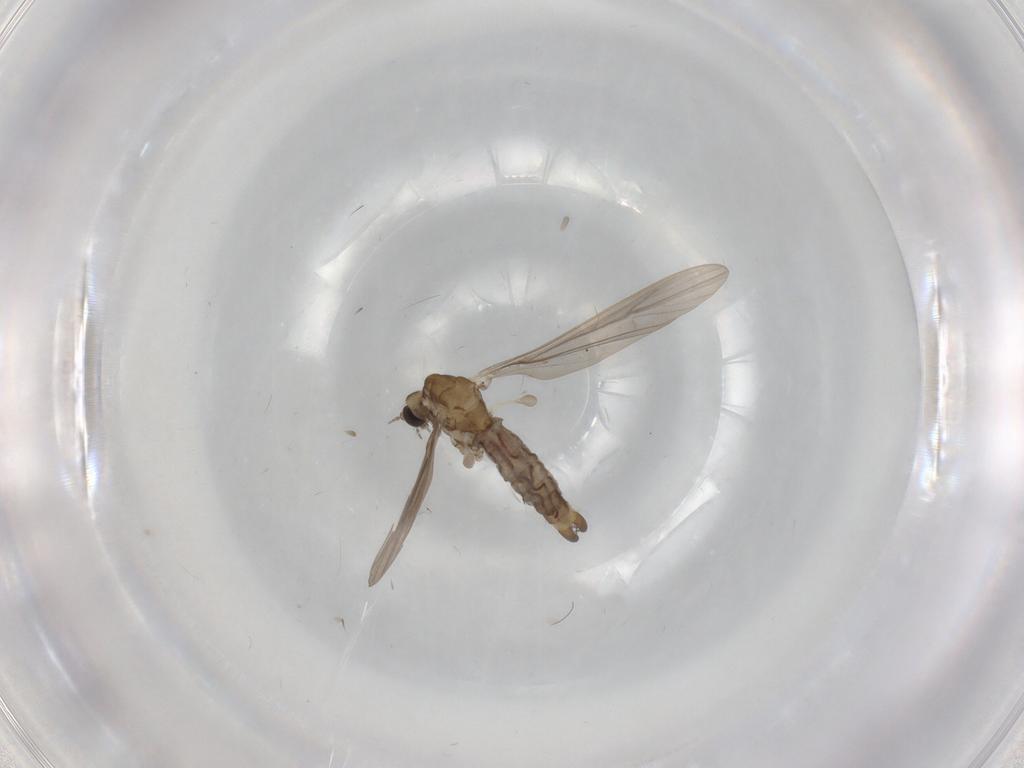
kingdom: Animalia
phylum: Arthropoda
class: Insecta
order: Diptera
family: Limoniidae
